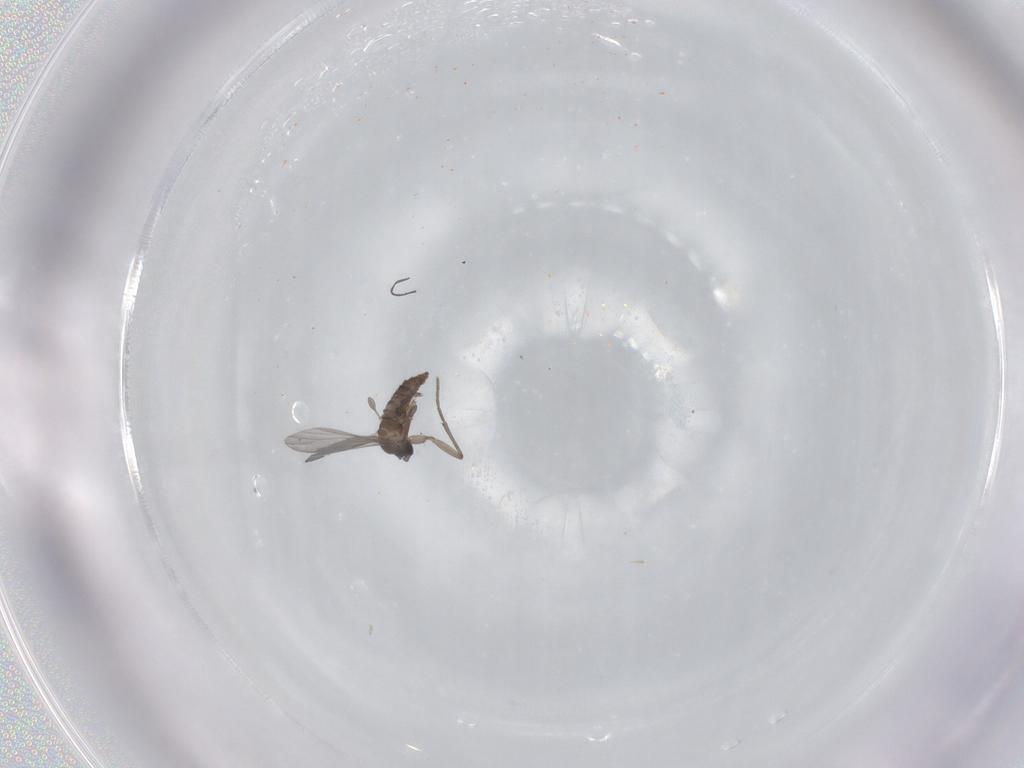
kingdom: Animalia
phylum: Arthropoda
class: Insecta
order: Diptera
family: Sciaridae
